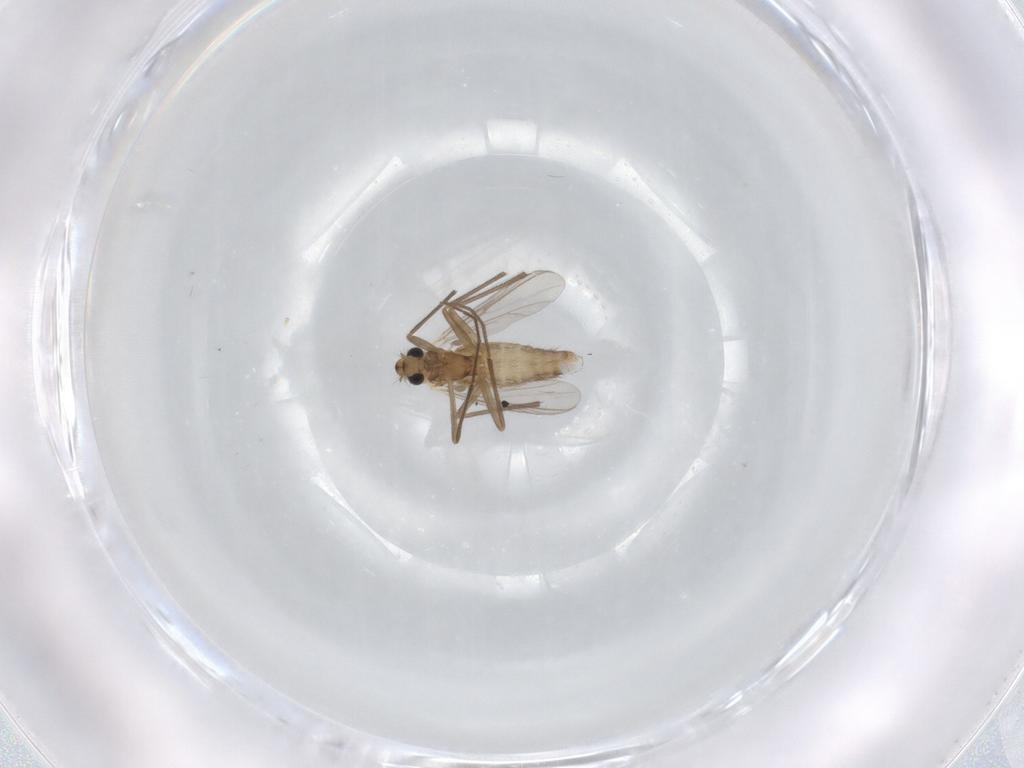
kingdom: Animalia
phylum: Arthropoda
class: Insecta
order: Diptera
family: Chironomidae
